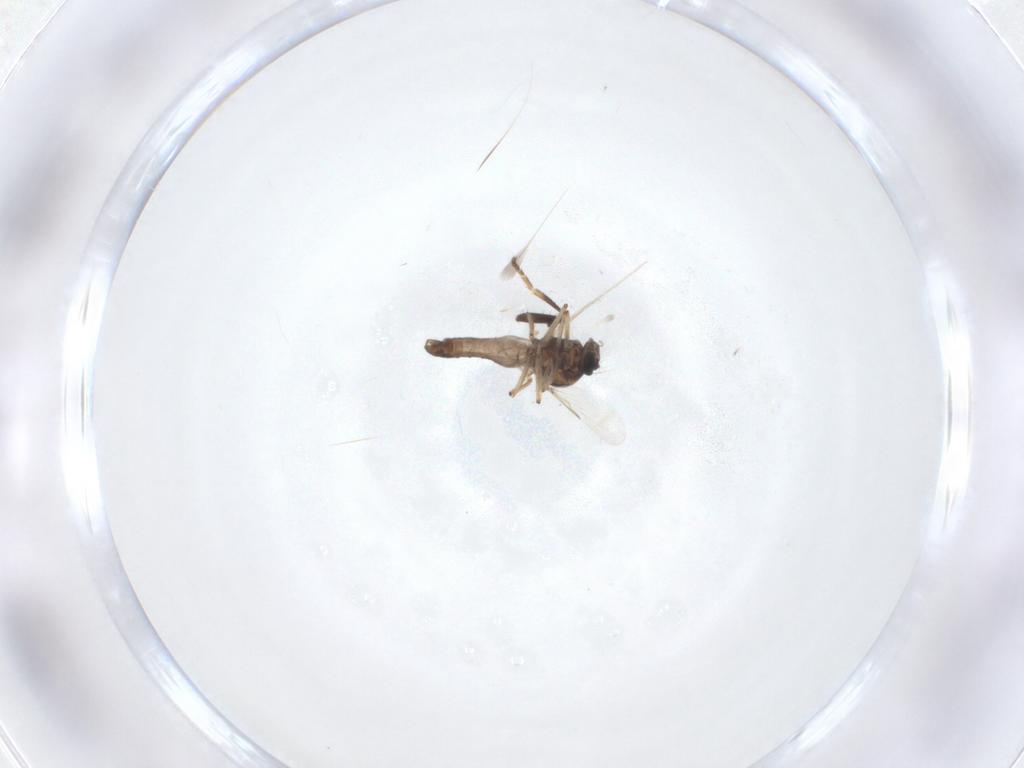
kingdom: Animalia
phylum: Arthropoda
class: Insecta
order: Diptera
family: Ceratopogonidae
